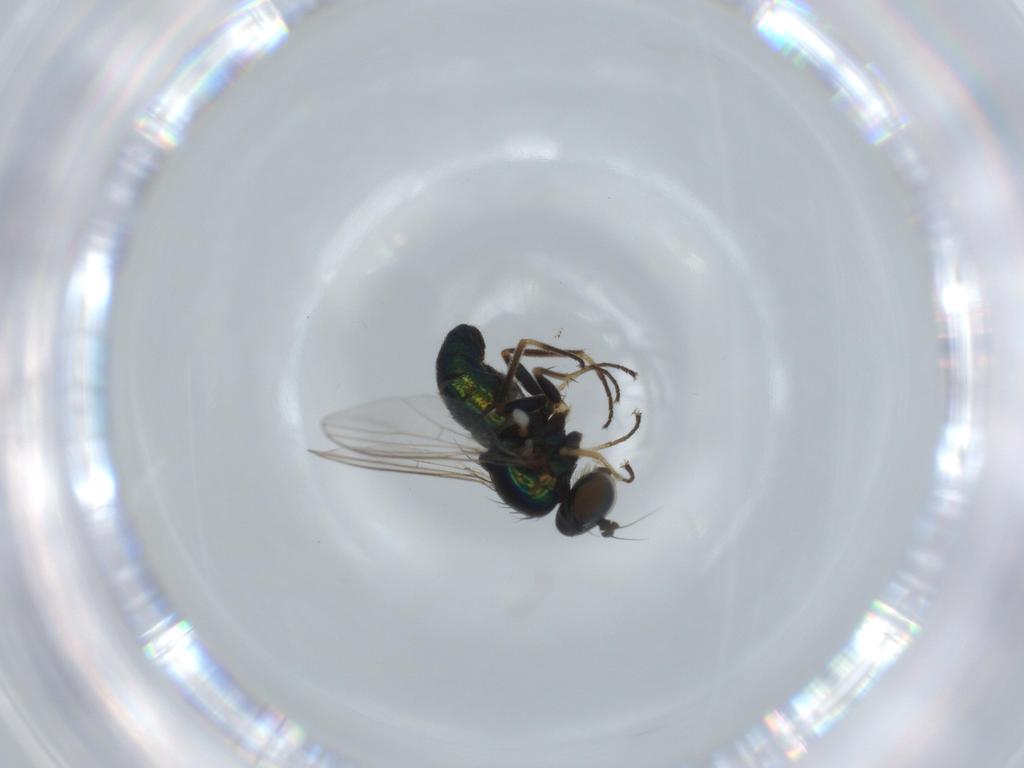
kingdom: Animalia
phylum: Arthropoda
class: Insecta
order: Diptera
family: Dolichopodidae
